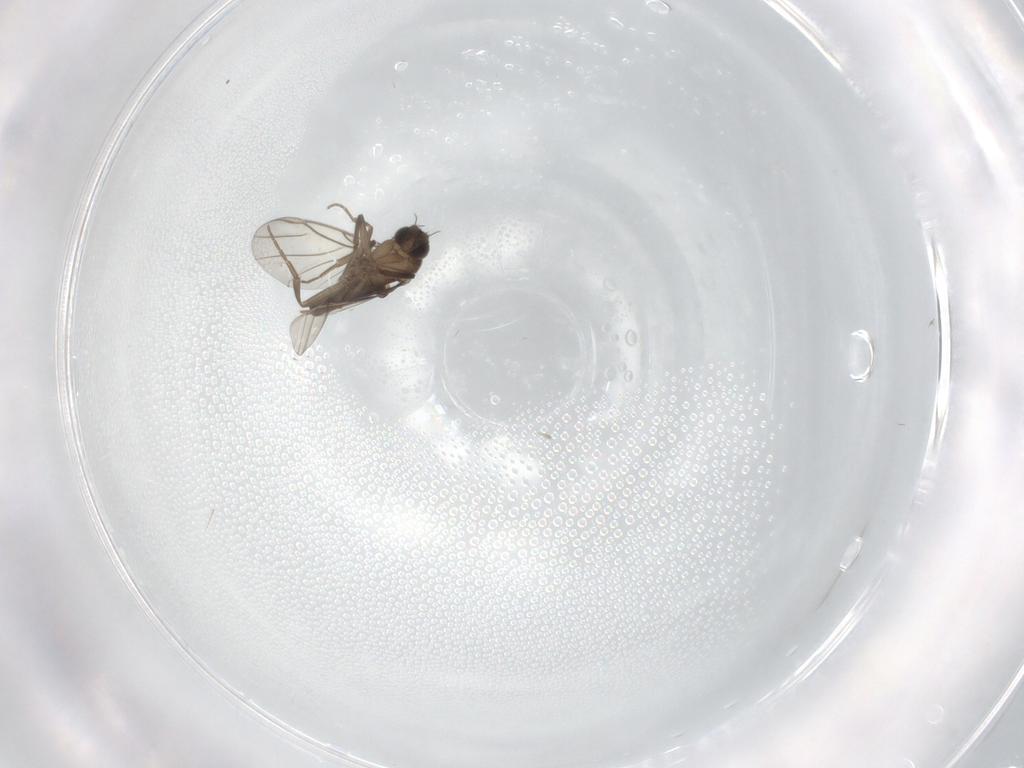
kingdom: Animalia
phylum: Arthropoda
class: Insecta
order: Diptera
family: Phoridae
